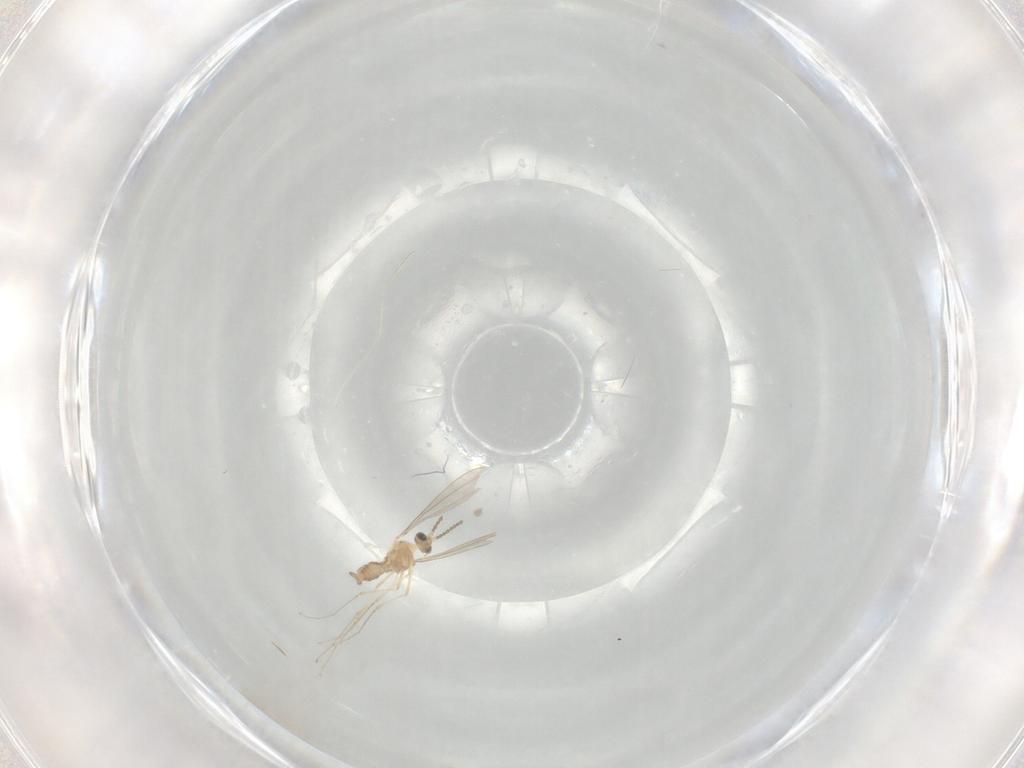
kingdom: Animalia
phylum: Arthropoda
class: Insecta
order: Diptera
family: Cecidomyiidae
